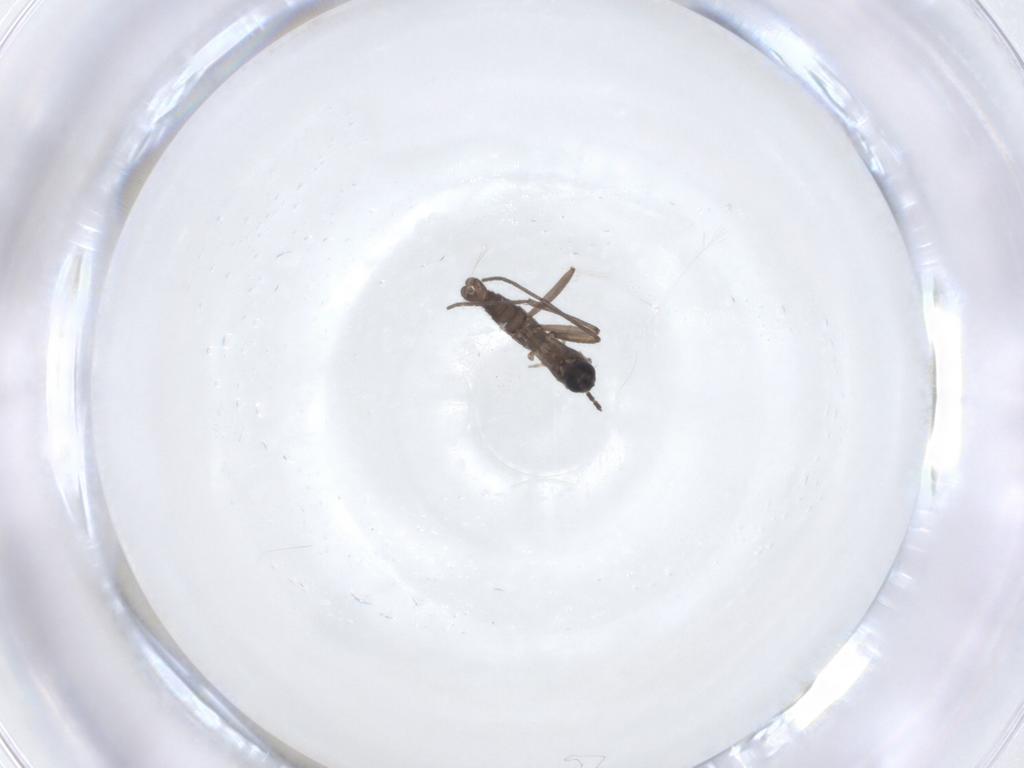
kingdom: Animalia
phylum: Arthropoda
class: Insecta
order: Diptera
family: Sciaridae
